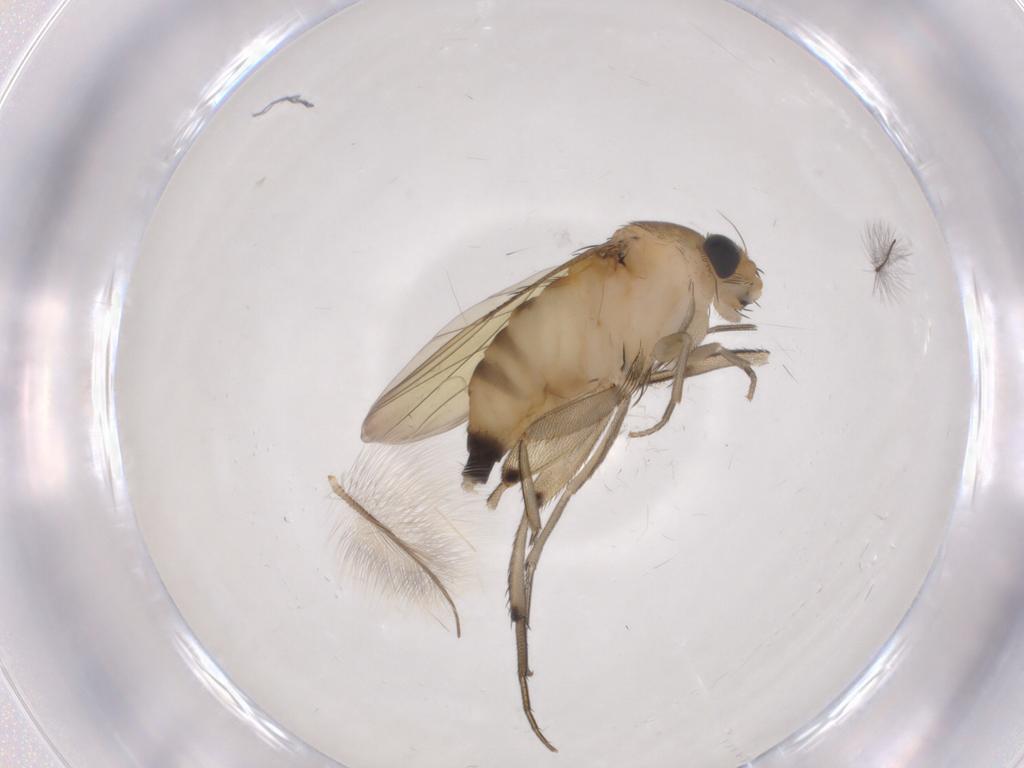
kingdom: Animalia
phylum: Arthropoda
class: Insecta
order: Diptera
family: Phoridae
